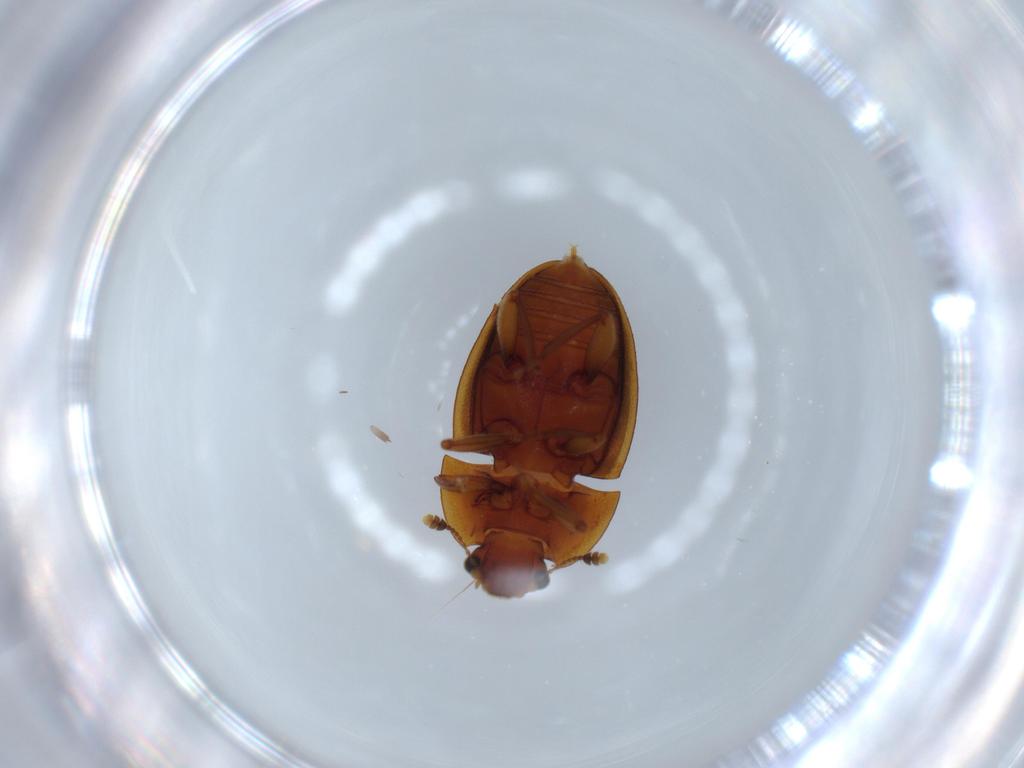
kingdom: Animalia
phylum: Arthropoda
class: Insecta
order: Coleoptera
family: Nitidulidae
